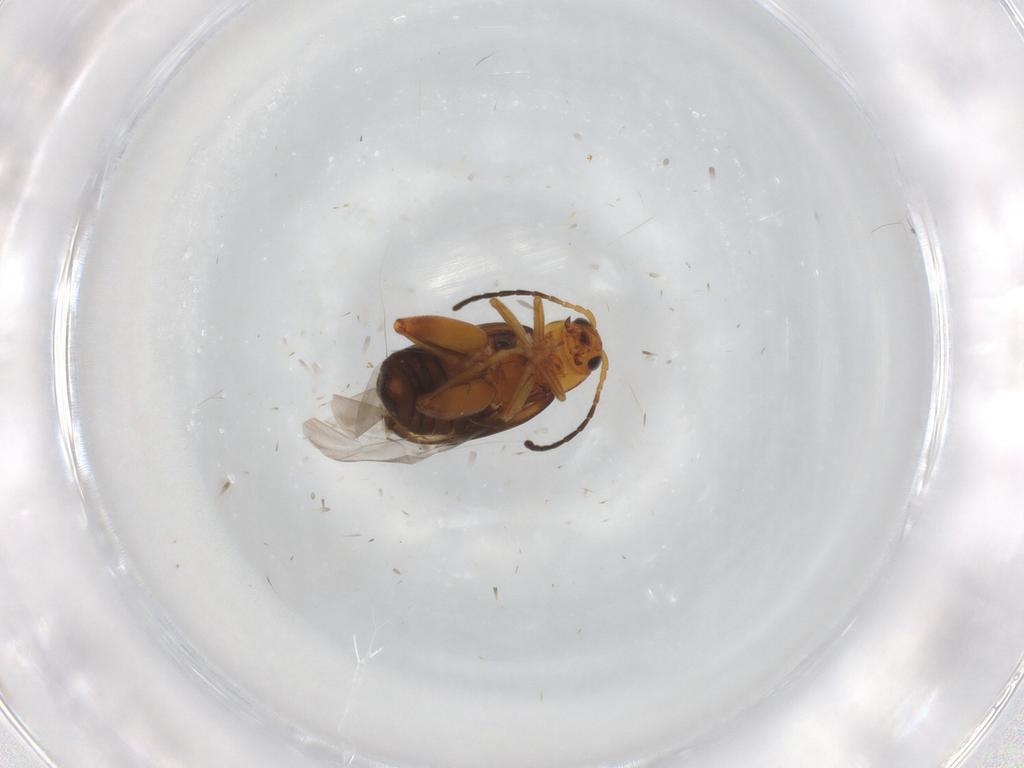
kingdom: Animalia
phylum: Arthropoda
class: Insecta
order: Coleoptera
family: Chrysomelidae
